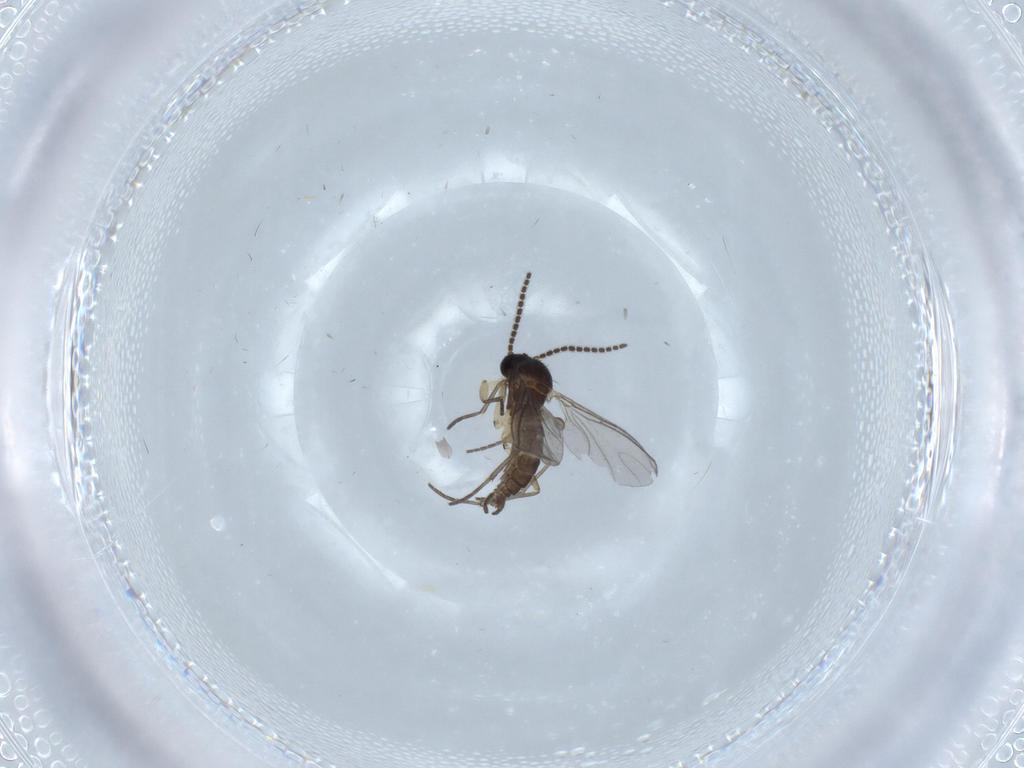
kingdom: Animalia
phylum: Arthropoda
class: Insecta
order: Diptera
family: Sciaridae
